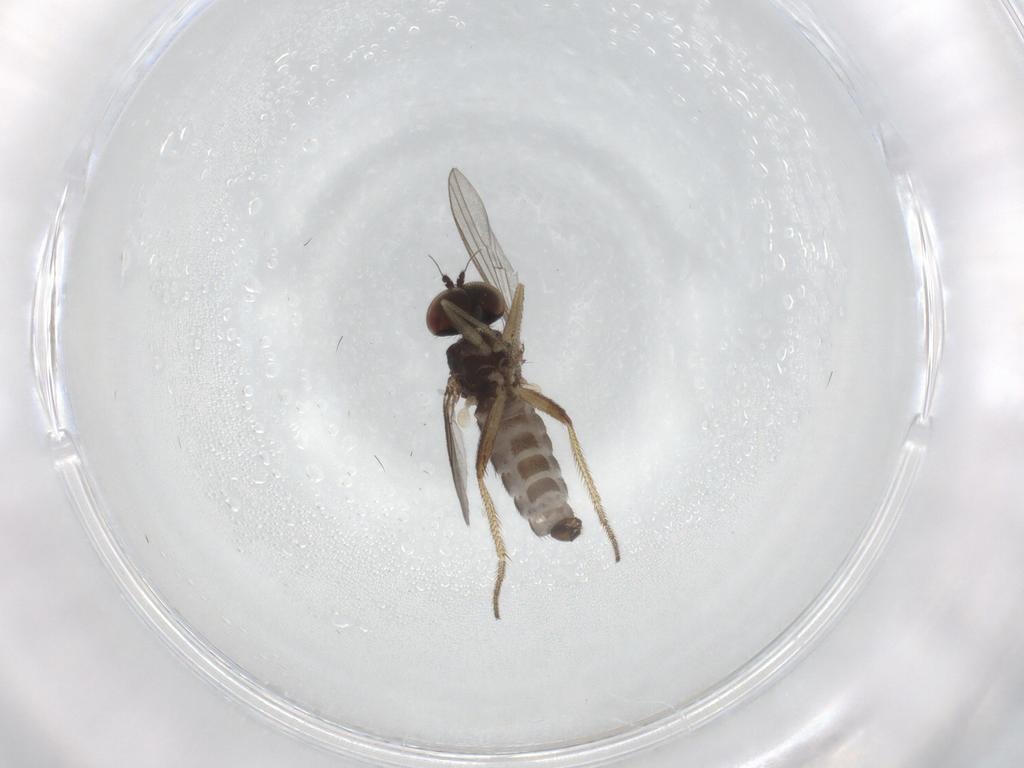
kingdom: Animalia
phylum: Arthropoda
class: Insecta
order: Diptera
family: Dolichopodidae
